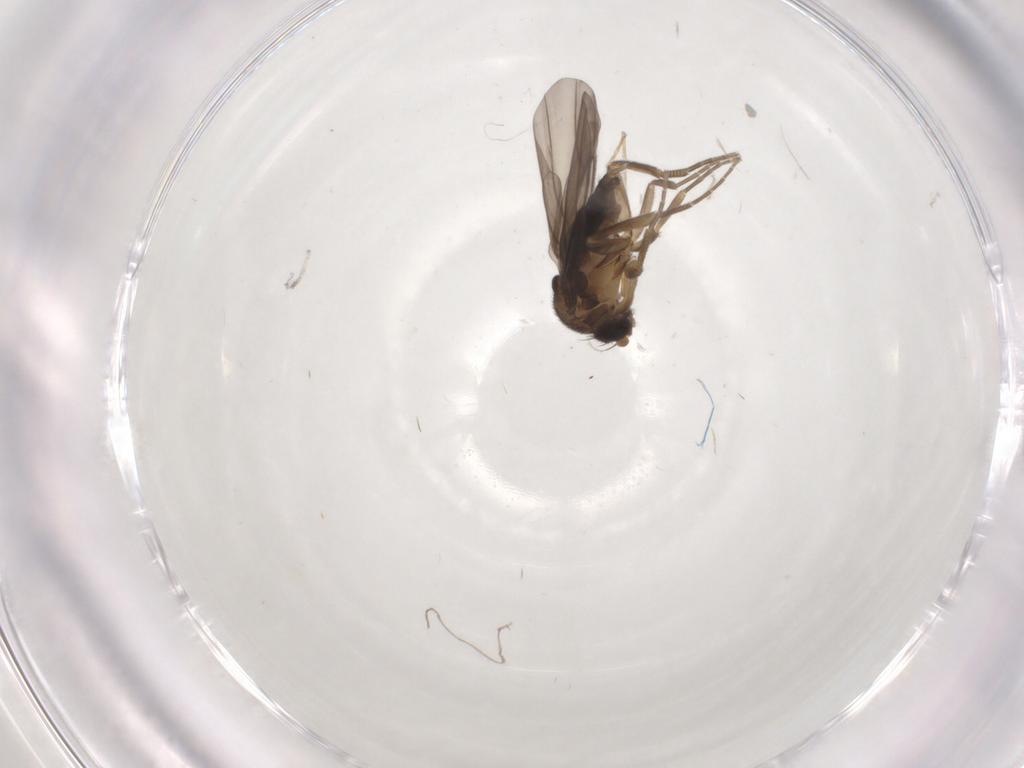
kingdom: Animalia
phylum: Arthropoda
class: Insecta
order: Diptera
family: Phoridae
